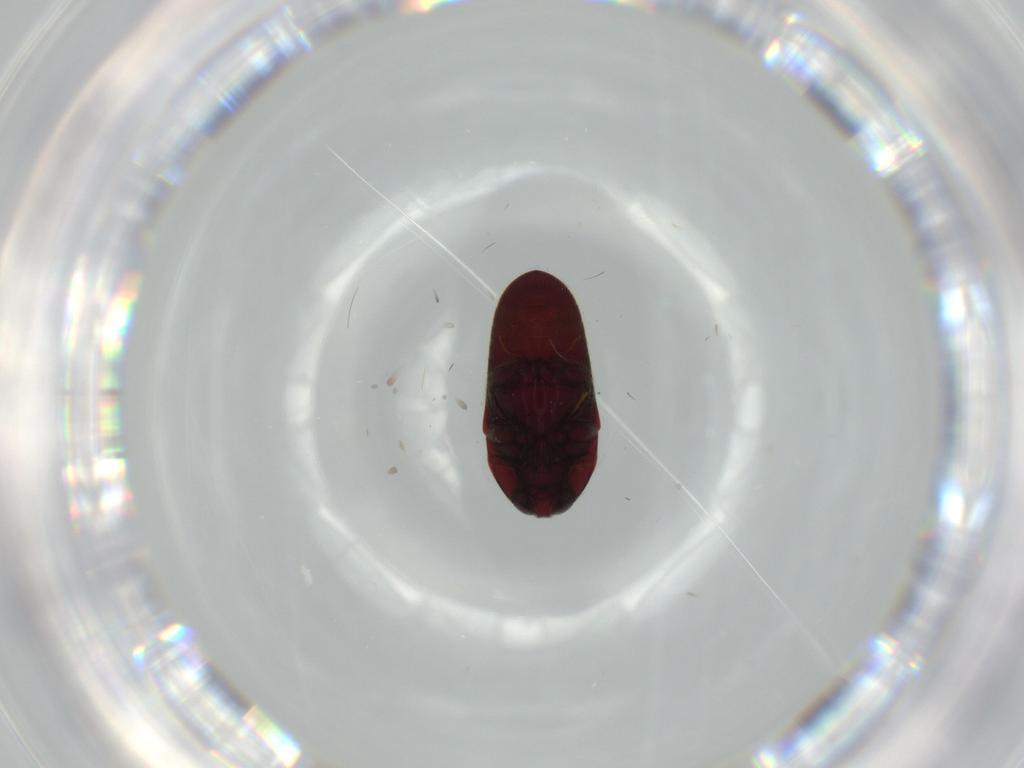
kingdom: Animalia
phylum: Arthropoda
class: Insecta
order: Coleoptera
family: Throscidae
